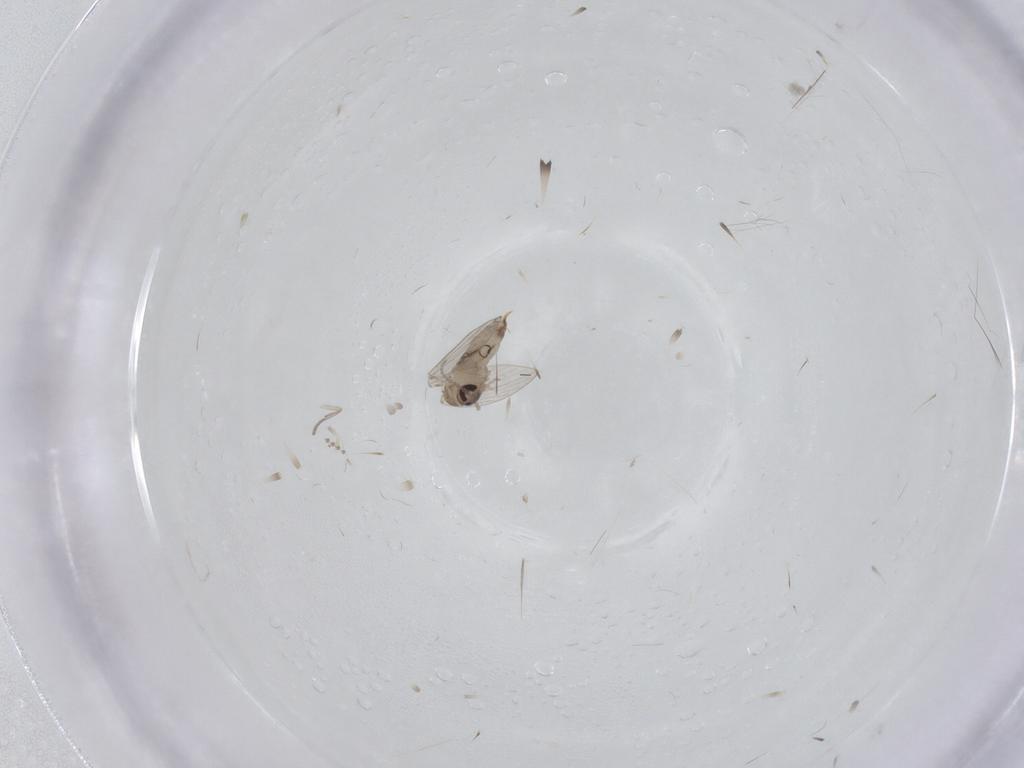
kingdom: Animalia
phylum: Arthropoda
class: Insecta
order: Diptera
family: Psychodidae
